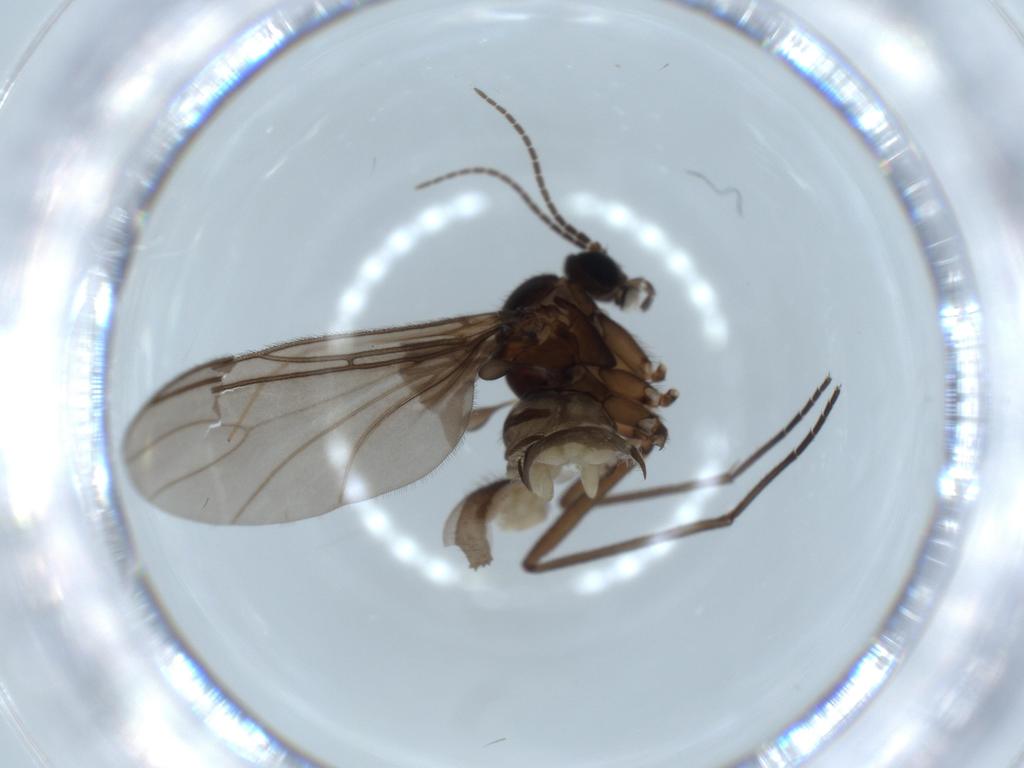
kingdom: Animalia
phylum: Arthropoda
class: Insecta
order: Diptera
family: Sciaridae
